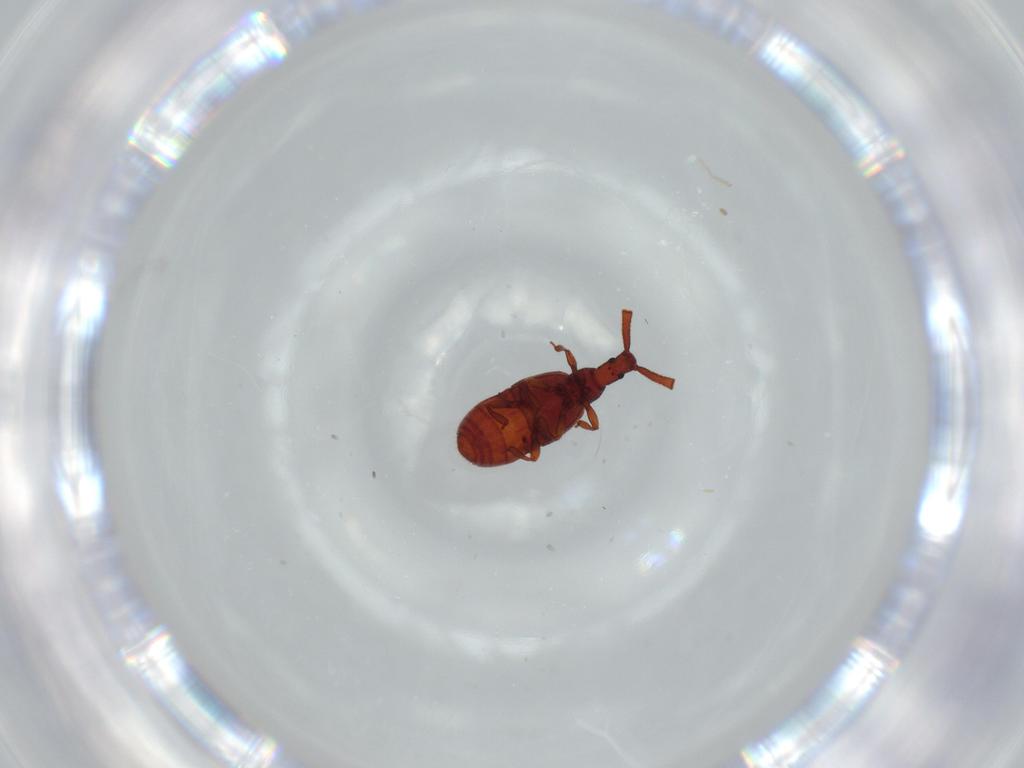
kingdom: Animalia
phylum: Arthropoda
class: Insecta
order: Coleoptera
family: Staphylinidae
